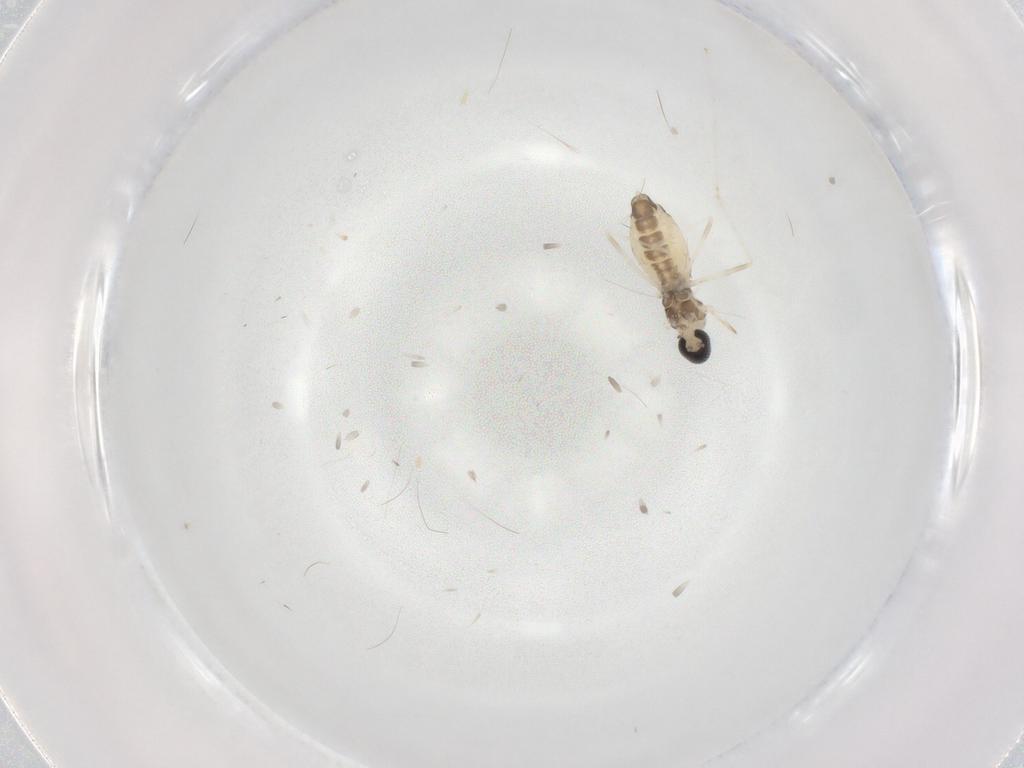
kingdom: Animalia
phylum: Arthropoda
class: Insecta
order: Diptera
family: Cecidomyiidae
